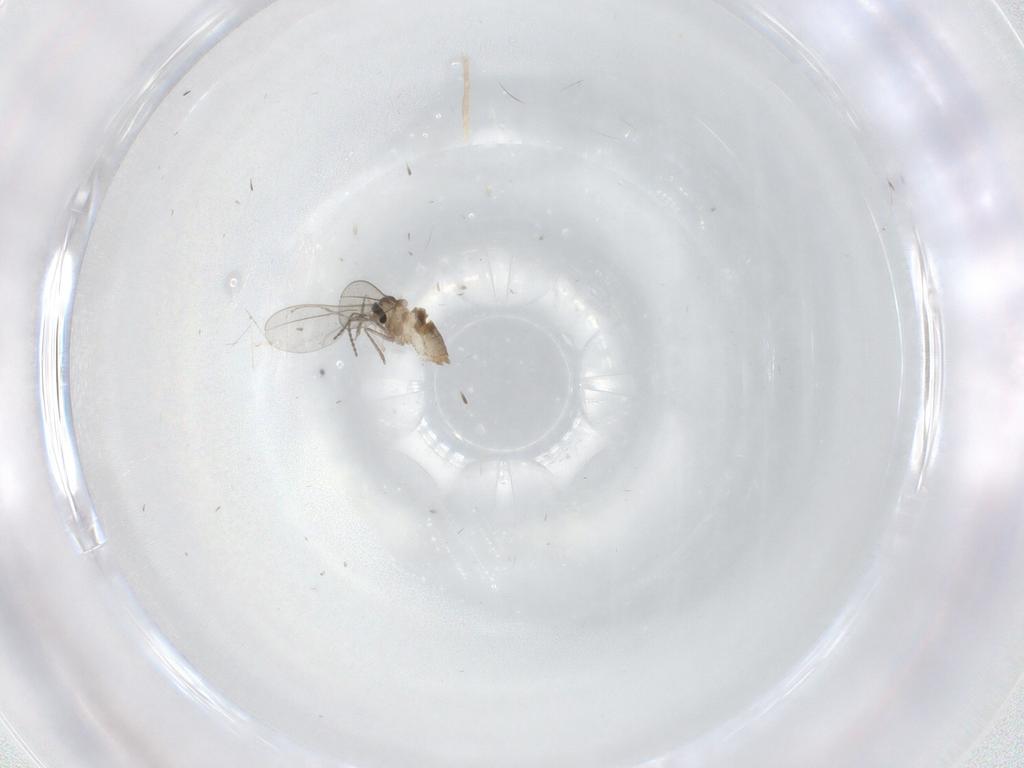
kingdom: Animalia
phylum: Arthropoda
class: Insecta
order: Diptera
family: Cecidomyiidae
